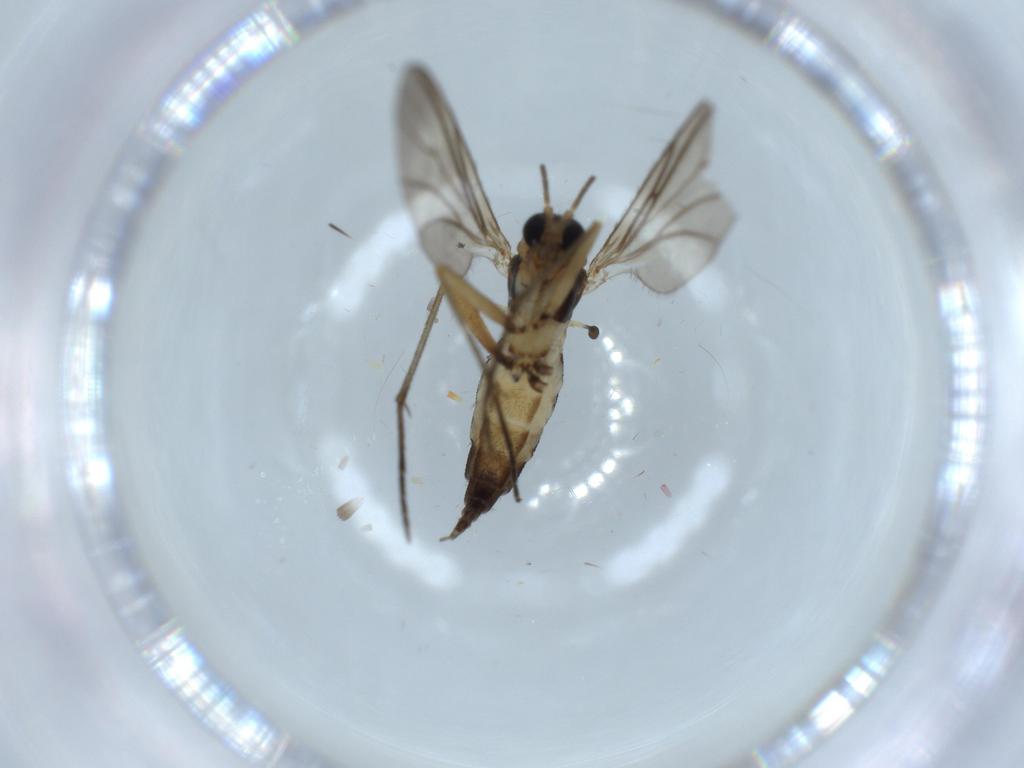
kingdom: Animalia
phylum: Arthropoda
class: Insecta
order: Diptera
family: Sciaridae
